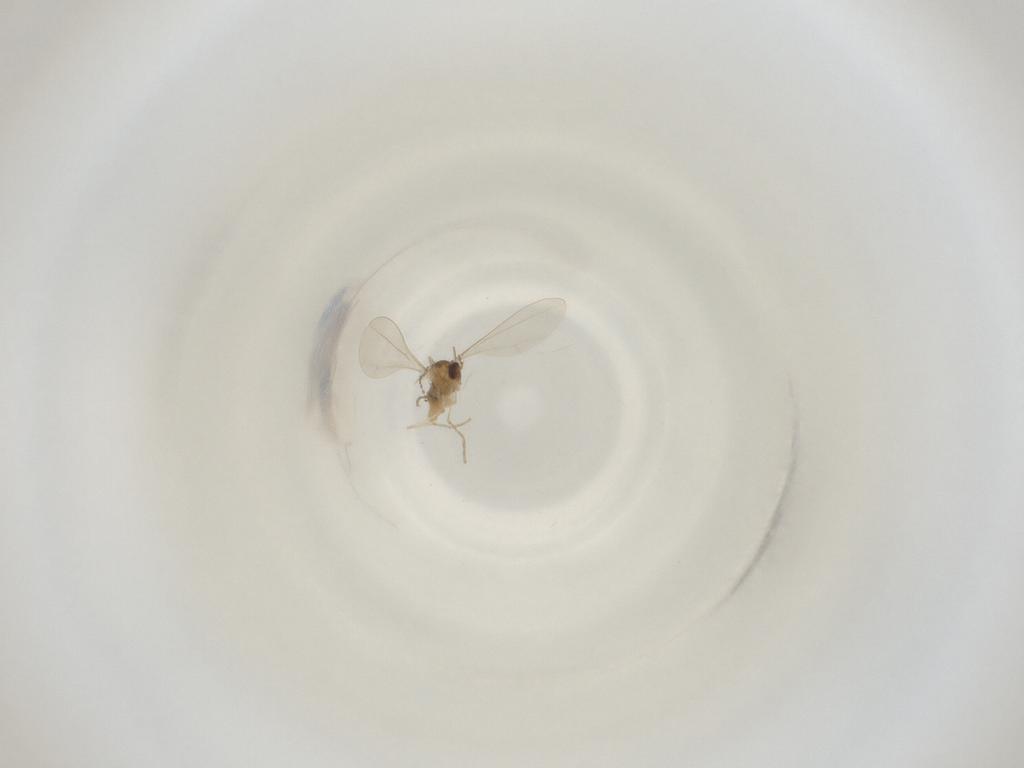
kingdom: Animalia
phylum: Arthropoda
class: Insecta
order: Diptera
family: Cecidomyiidae
